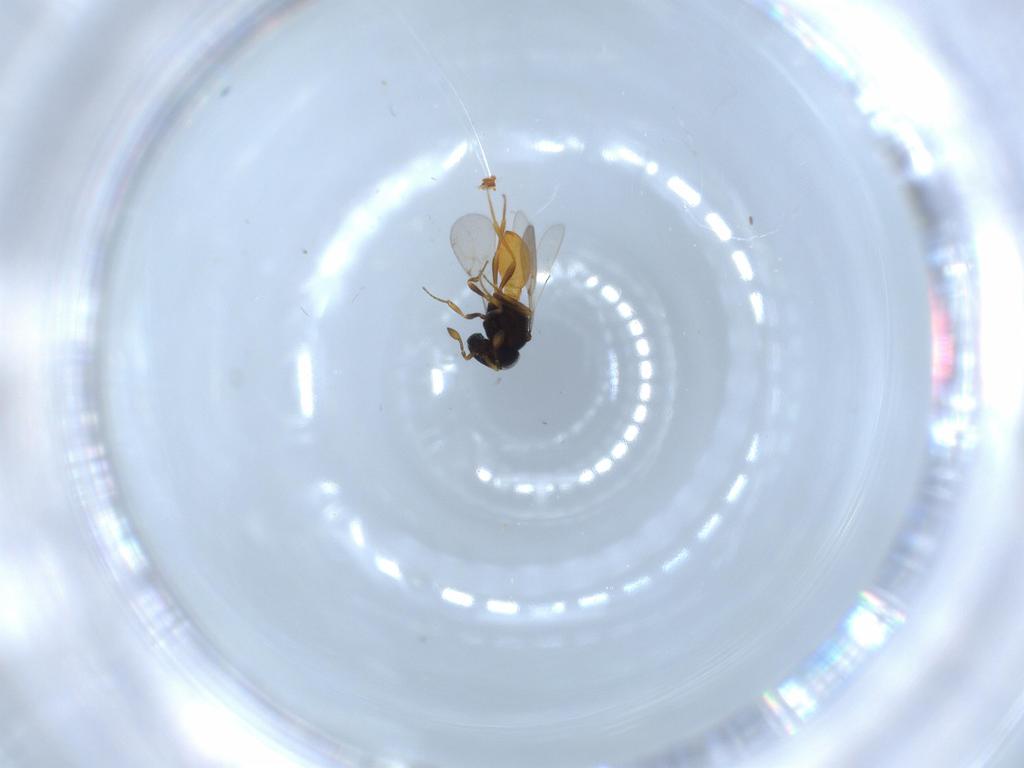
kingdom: Animalia
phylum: Arthropoda
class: Insecta
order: Hymenoptera
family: Scelionidae
